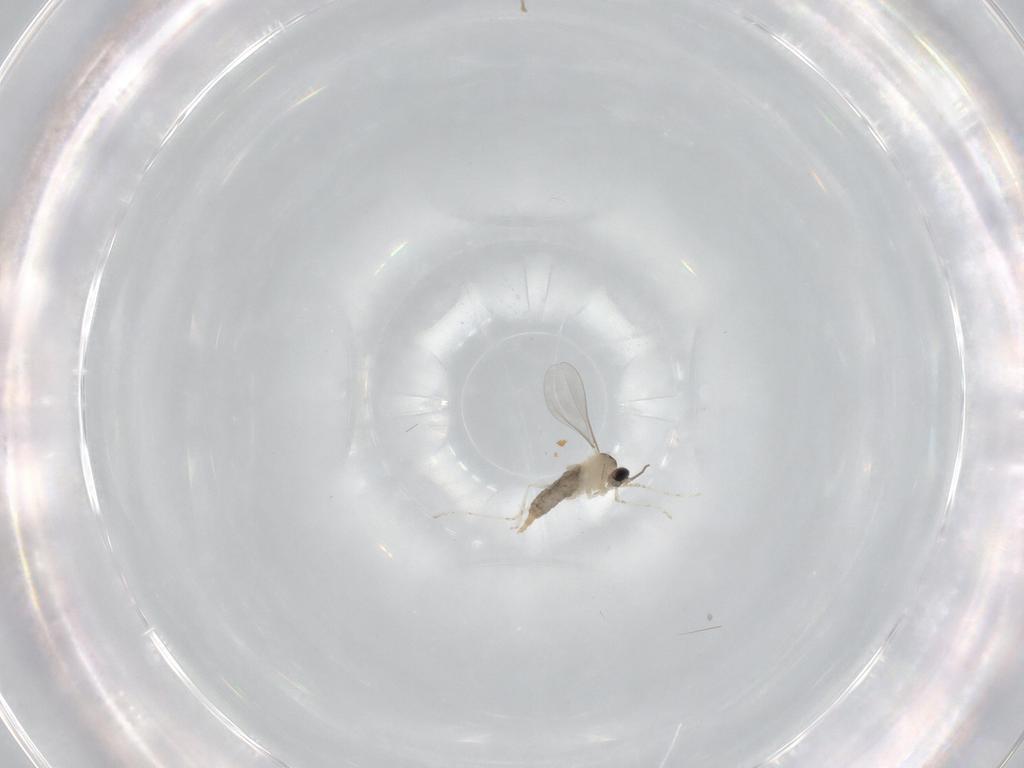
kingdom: Animalia
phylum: Arthropoda
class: Insecta
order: Diptera
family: Cecidomyiidae
